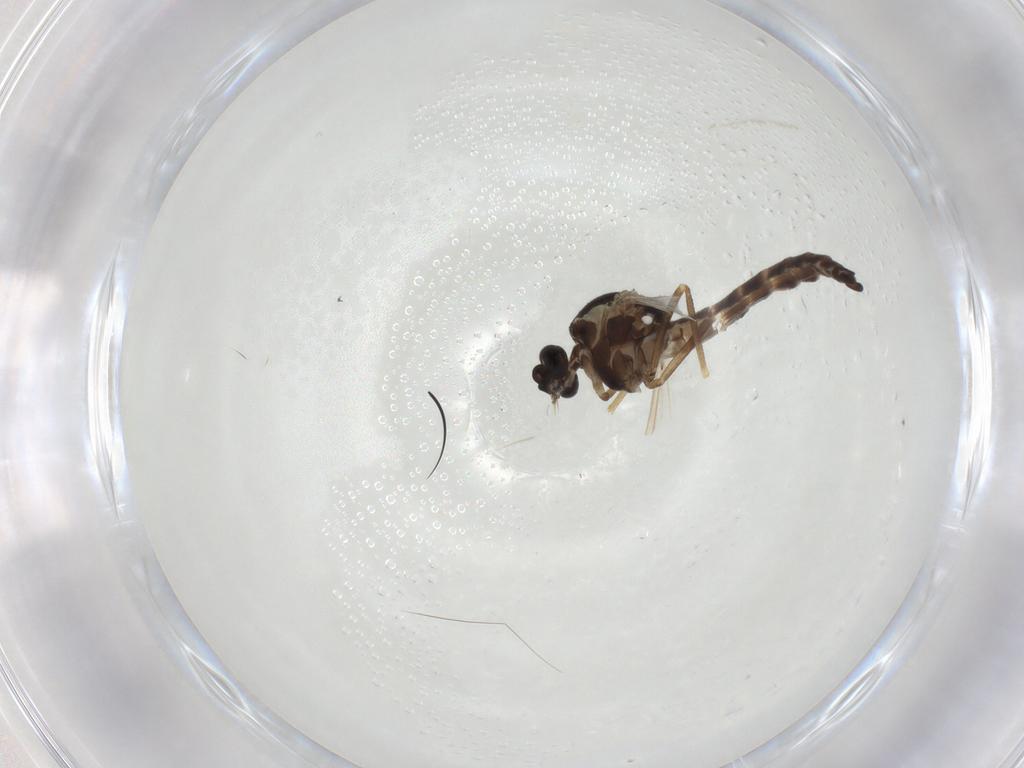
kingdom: Animalia
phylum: Arthropoda
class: Insecta
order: Diptera
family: Ceratopogonidae
